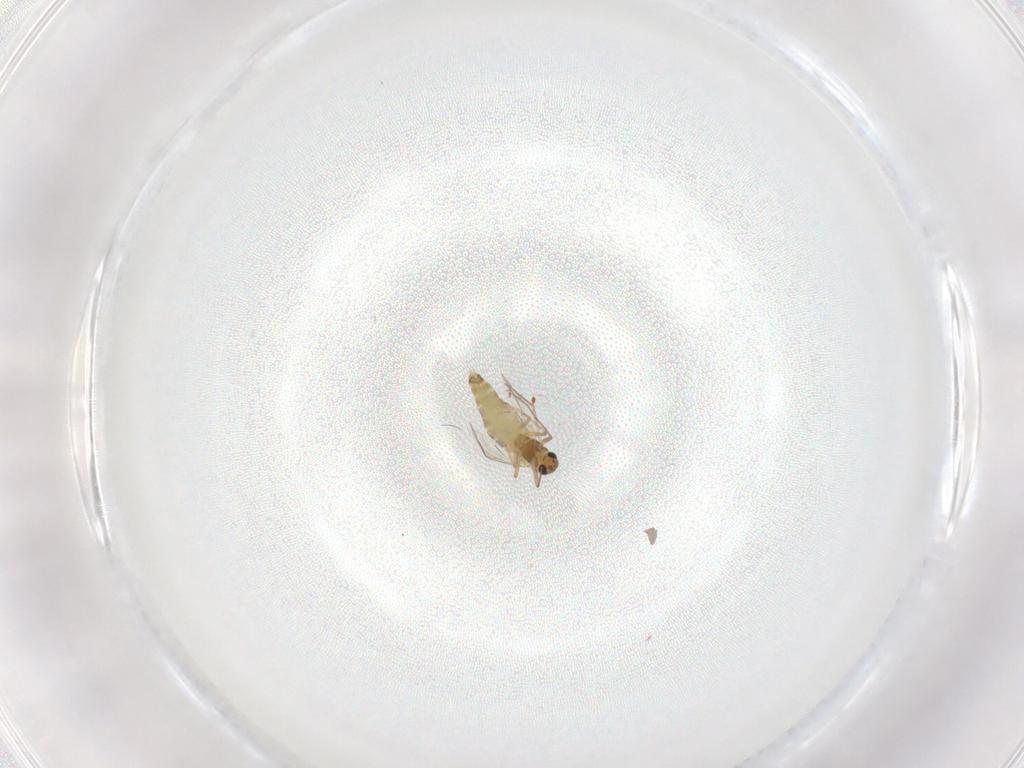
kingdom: Animalia
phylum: Arthropoda
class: Insecta
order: Diptera
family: Chironomidae
